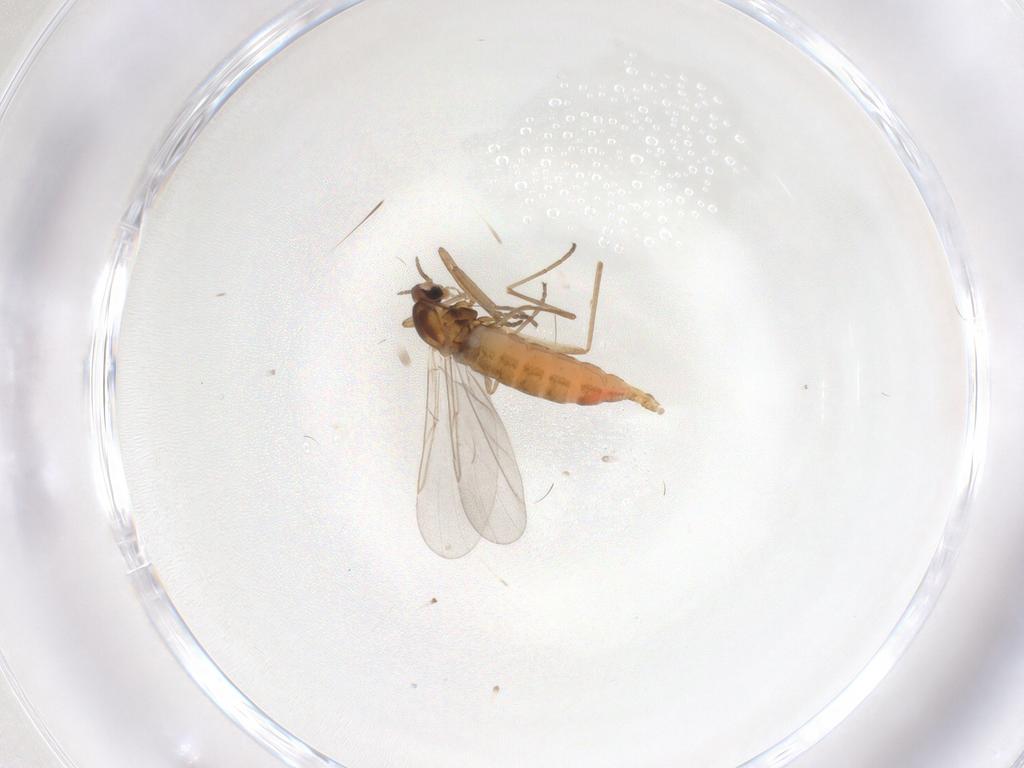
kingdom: Animalia
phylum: Arthropoda
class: Insecta
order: Diptera
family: Cecidomyiidae
